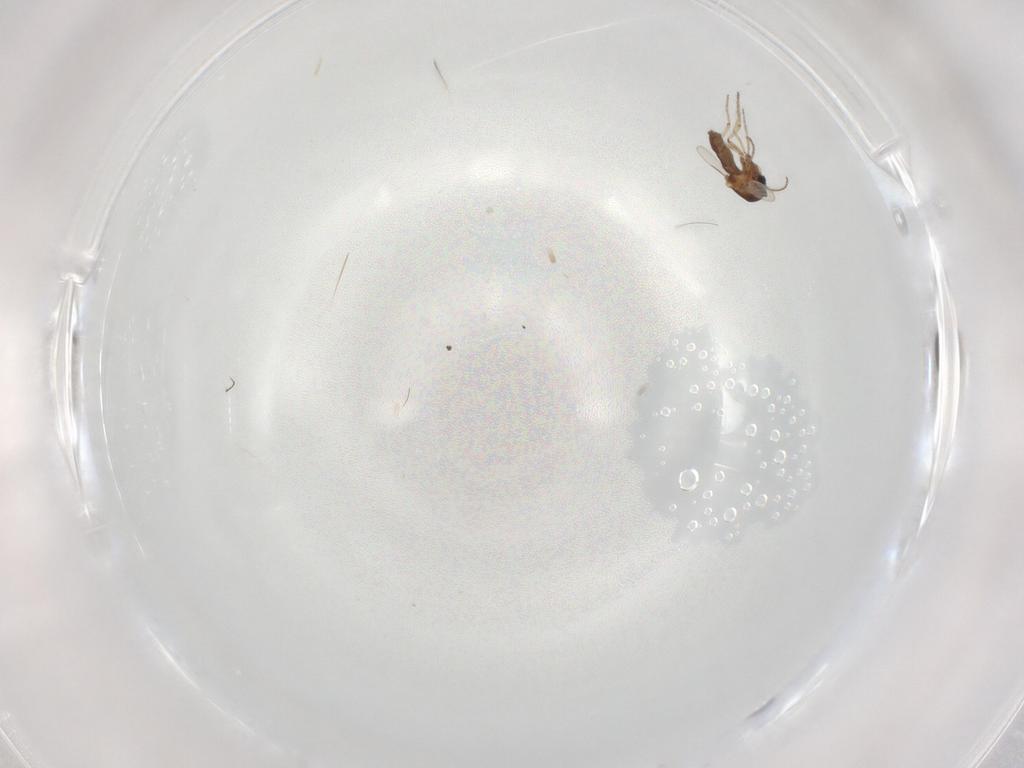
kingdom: Animalia
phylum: Arthropoda
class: Insecta
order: Diptera
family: Ceratopogonidae
